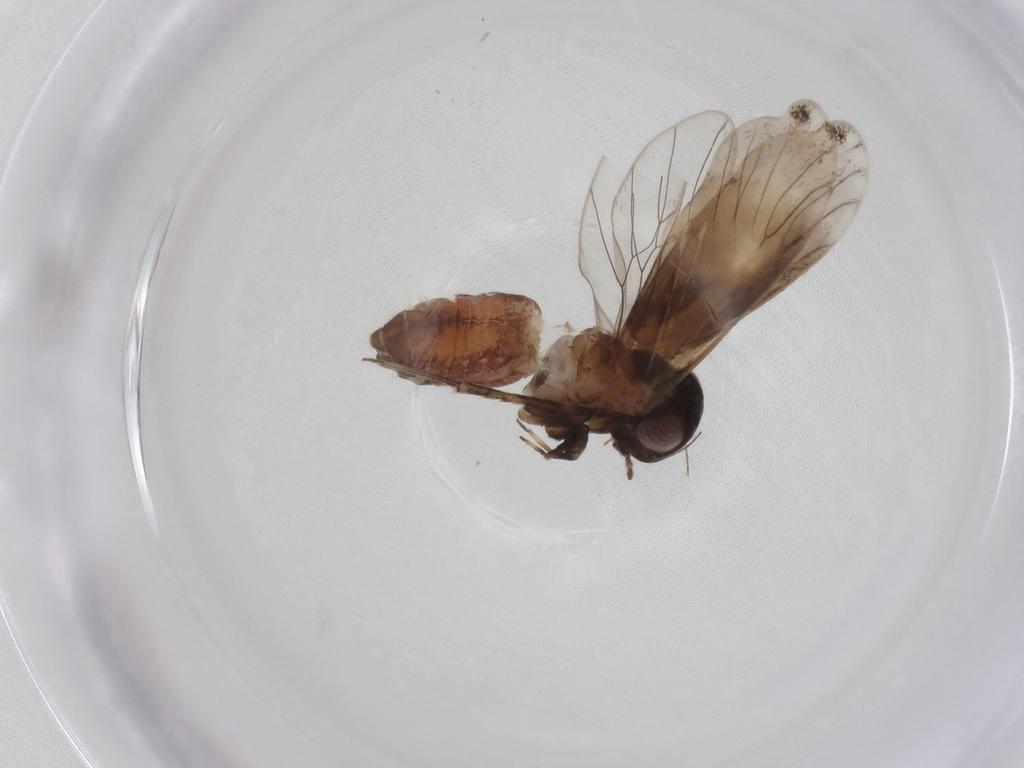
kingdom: Animalia
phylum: Arthropoda
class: Insecta
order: Psocodea
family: Amphientomidae
